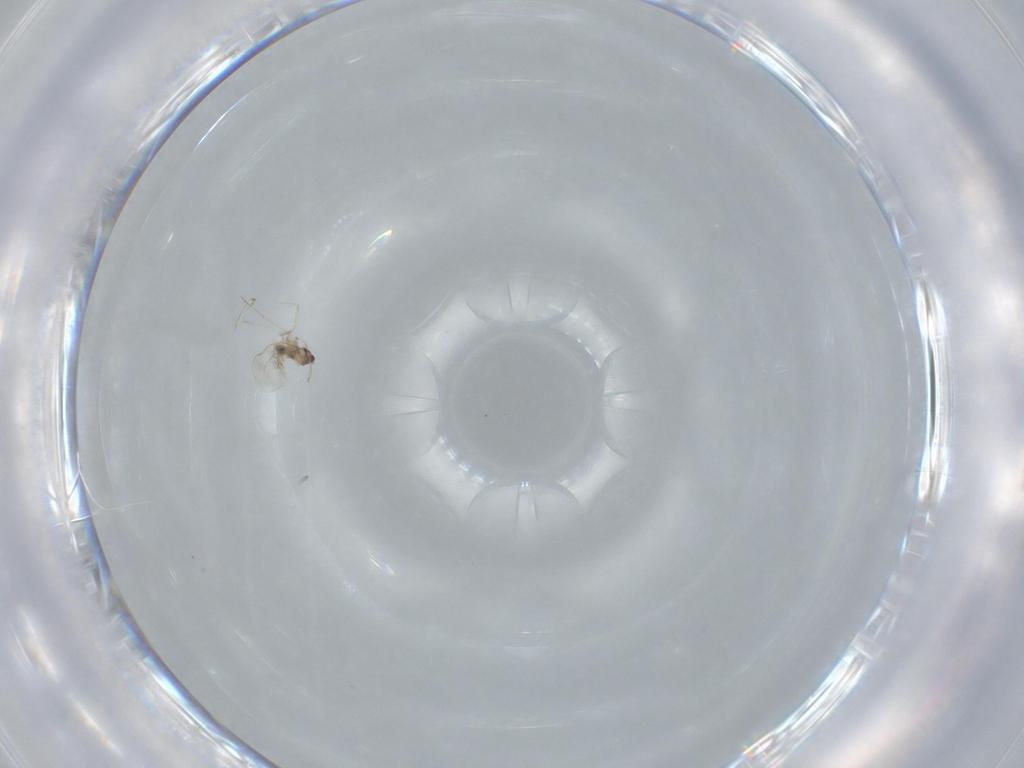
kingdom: Animalia
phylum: Arthropoda
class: Insecta
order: Diptera
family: Cecidomyiidae
